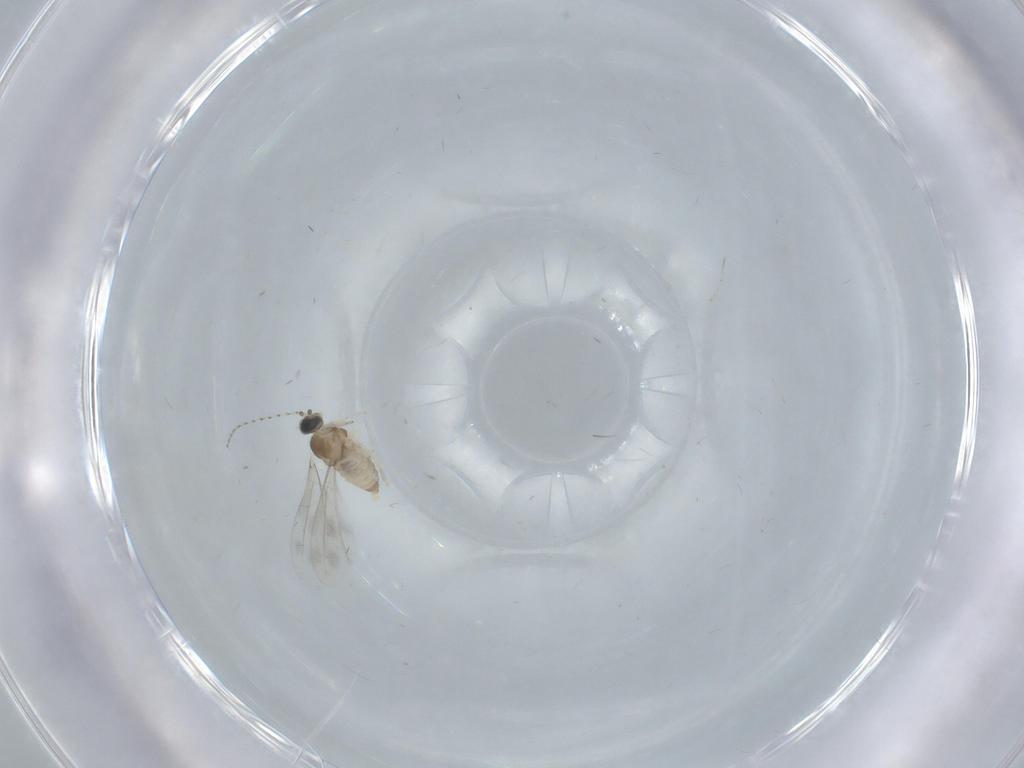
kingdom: Animalia
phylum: Arthropoda
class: Insecta
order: Diptera
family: Cecidomyiidae
